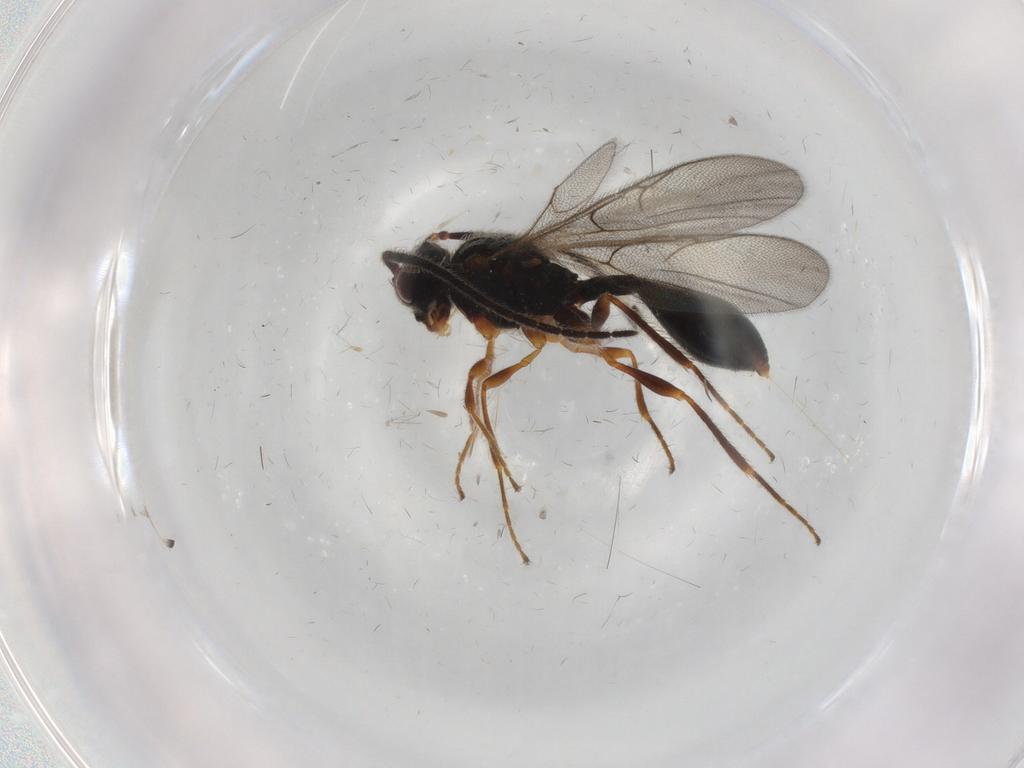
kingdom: Animalia
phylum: Arthropoda
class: Insecta
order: Hymenoptera
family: Diapriidae
